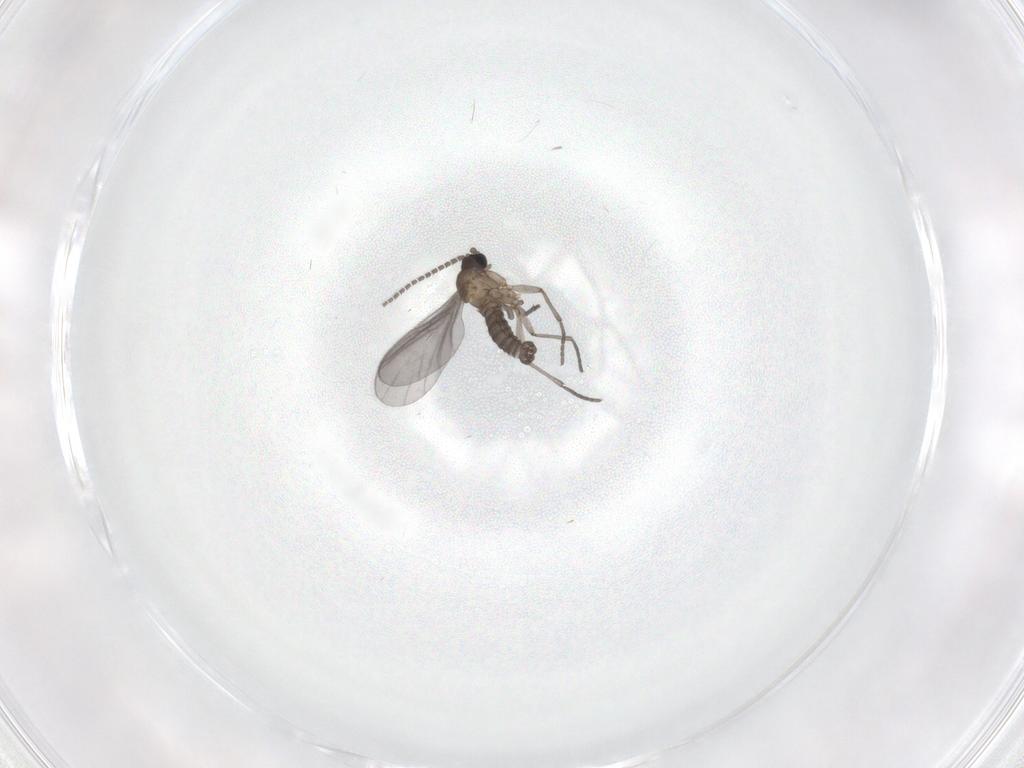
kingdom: Animalia
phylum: Arthropoda
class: Insecta
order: Diptera
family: Sciaridae
